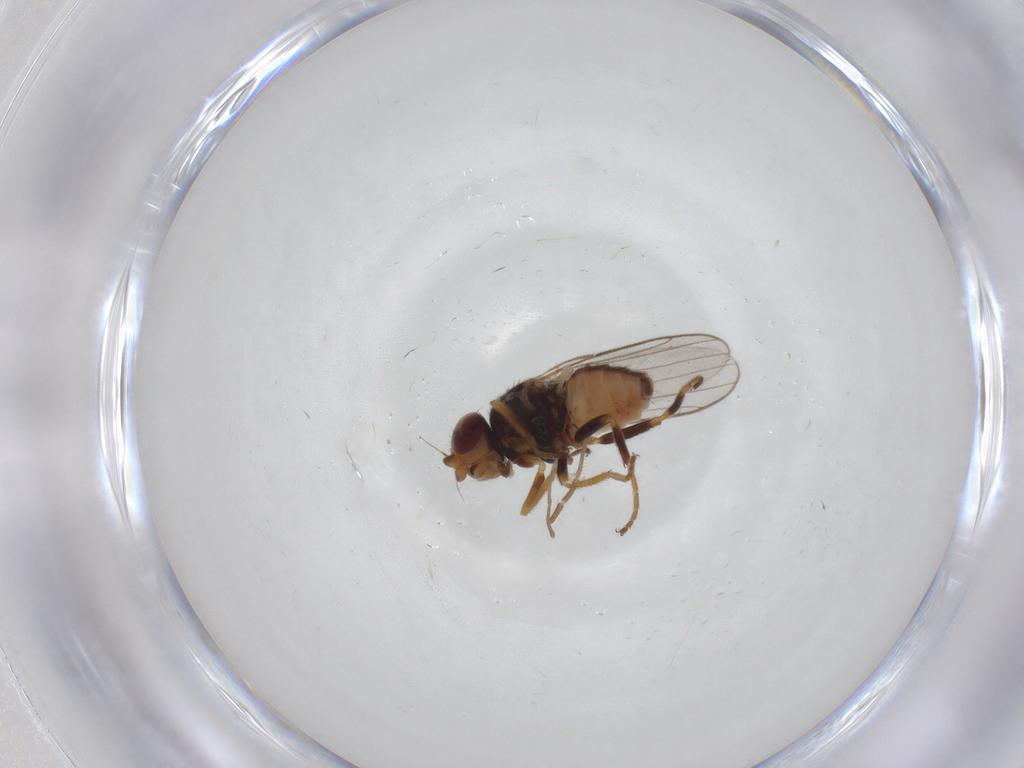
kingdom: Animalia
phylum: Arthropoda
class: Insecta
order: Diptera
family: Chloropidae
